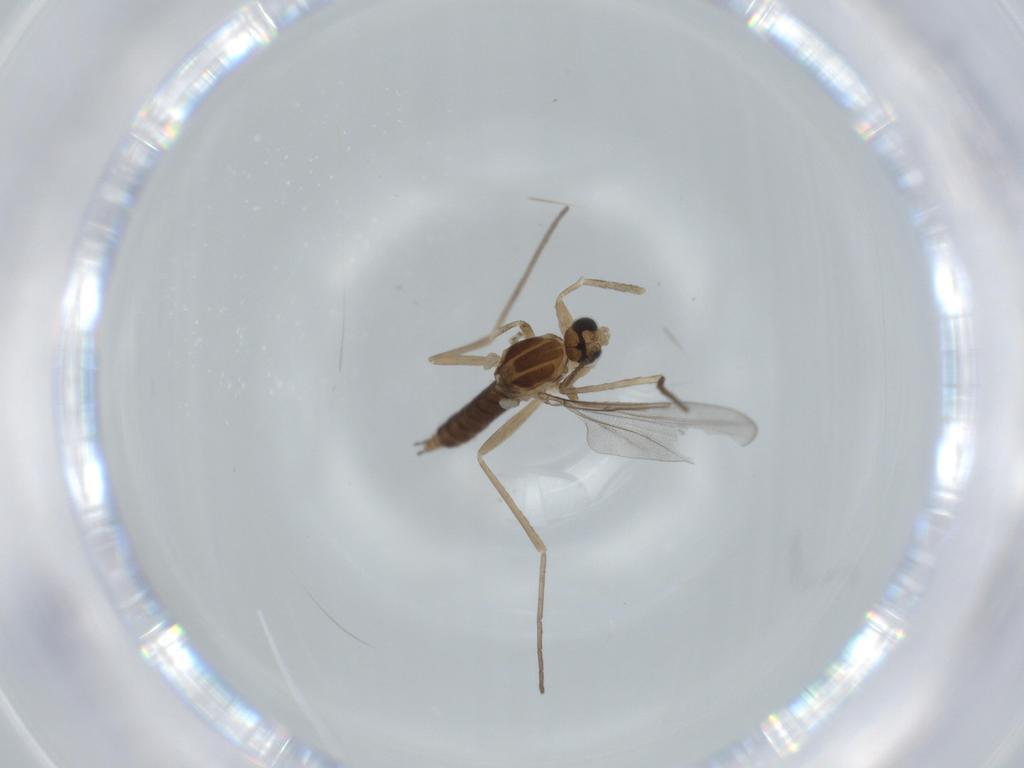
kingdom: Animalia
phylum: Arthropoda
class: Insecta
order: Diptera
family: Cecidomyiidae
